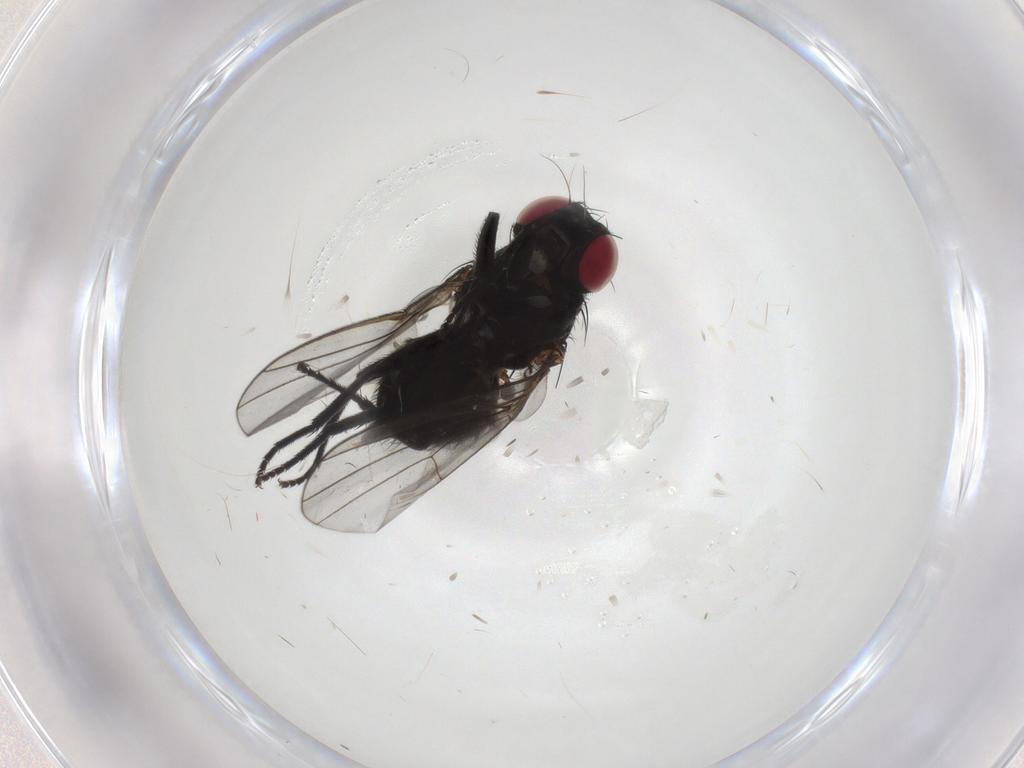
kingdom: Animalia
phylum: Arthropoda
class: Insecta
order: Diptera
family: Agromyzidae
